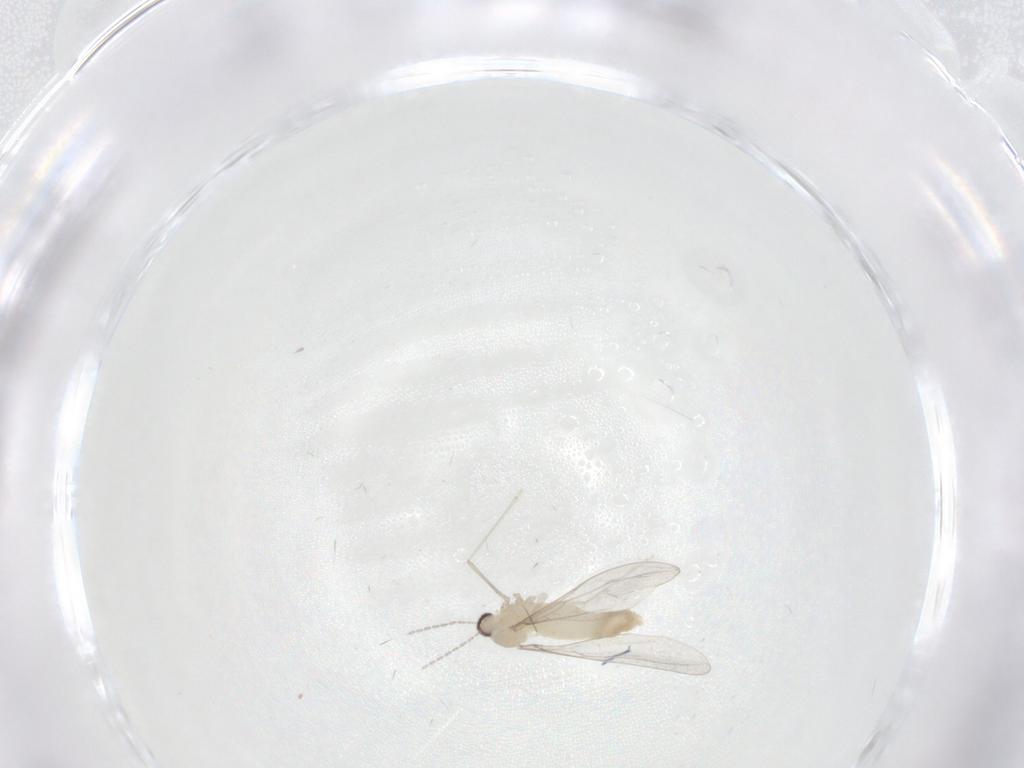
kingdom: Animalia
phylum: Arthropoda
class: Insecta
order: Diptera
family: Cecidomyiidae
